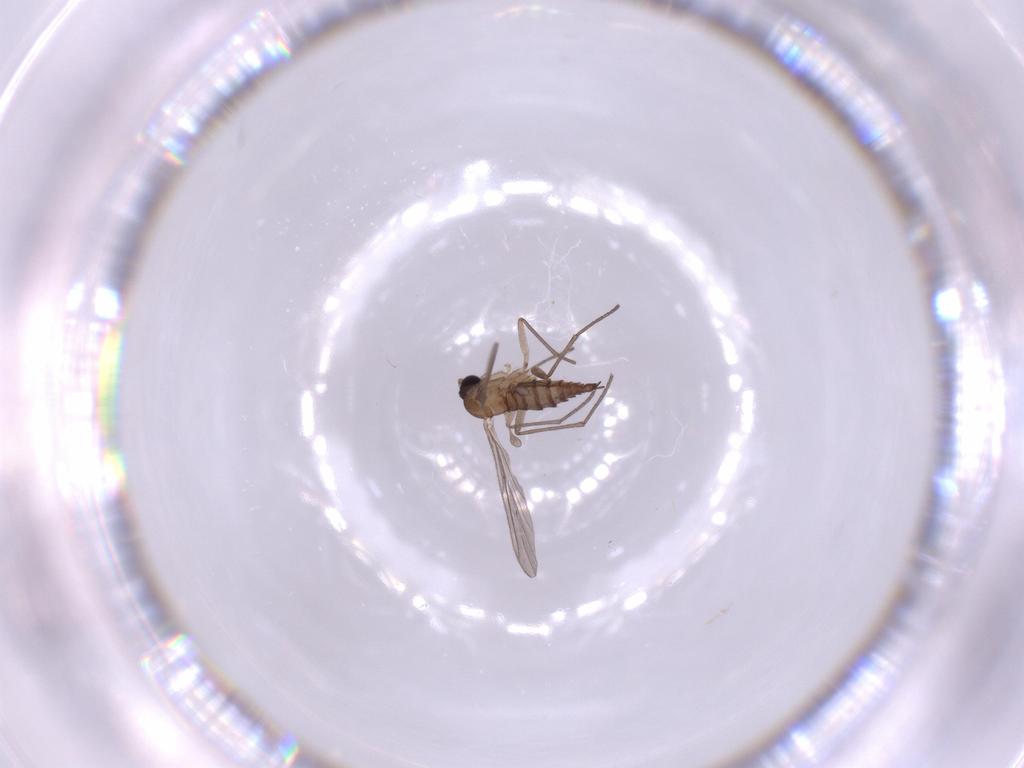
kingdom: Animalia
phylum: Arthropoda
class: Insecta
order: Diptera
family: Sciaridae
